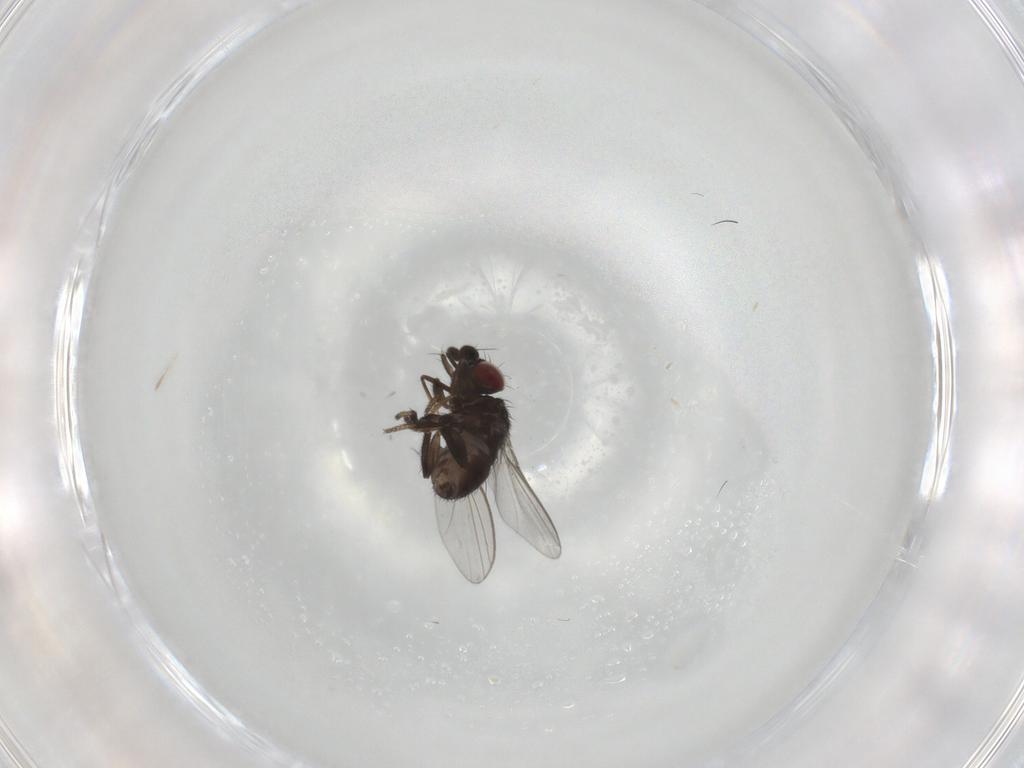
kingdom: Animalia
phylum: Arthropoda
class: Insecta
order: Diptera
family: Milichiidae
